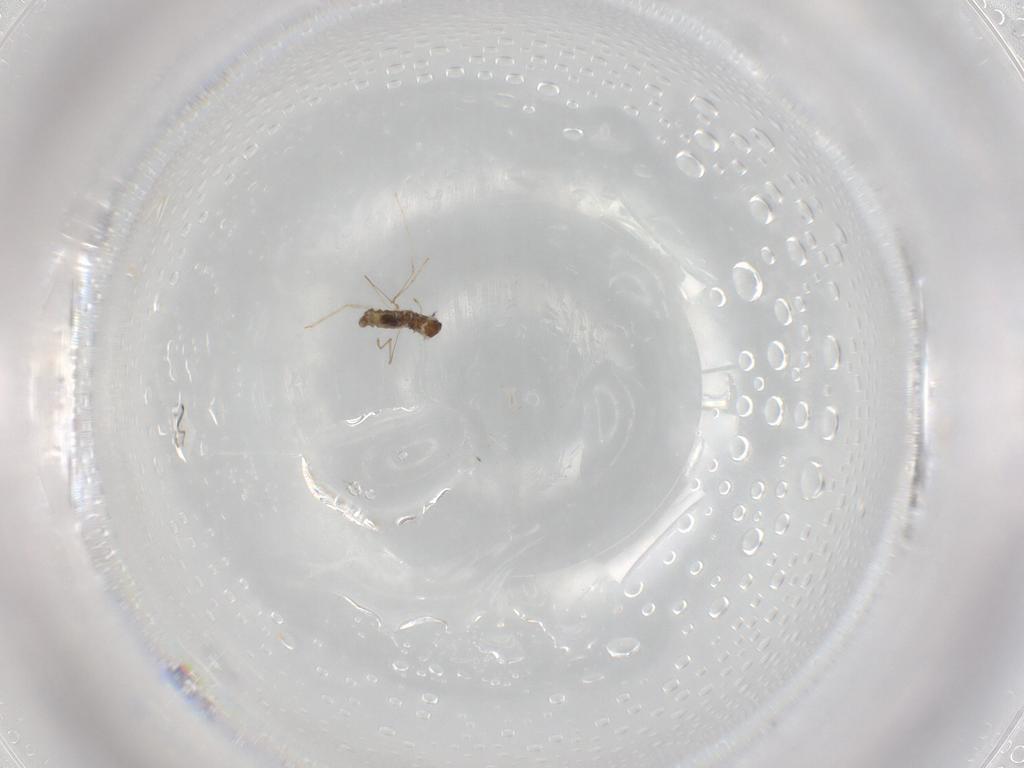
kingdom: Animalia
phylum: Arthropoda
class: Insecta
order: Diptera
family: Cecidomyiidae
